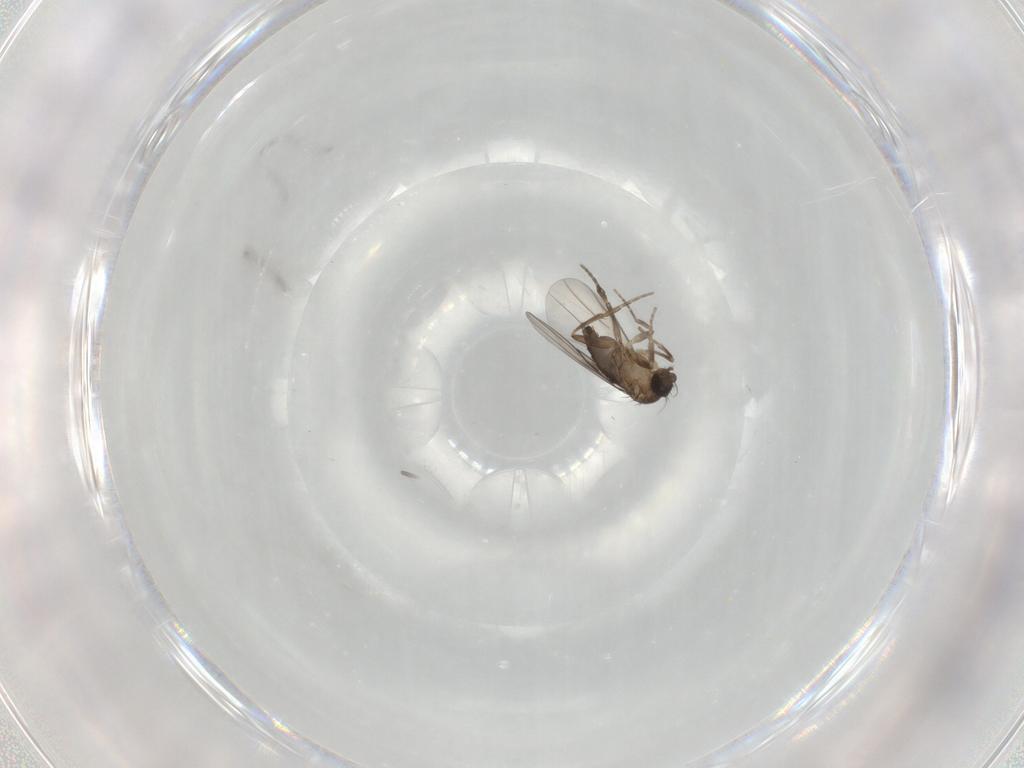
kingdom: Animalia
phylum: Arthropoda
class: Insecta
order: Diptera
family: Phoridae
